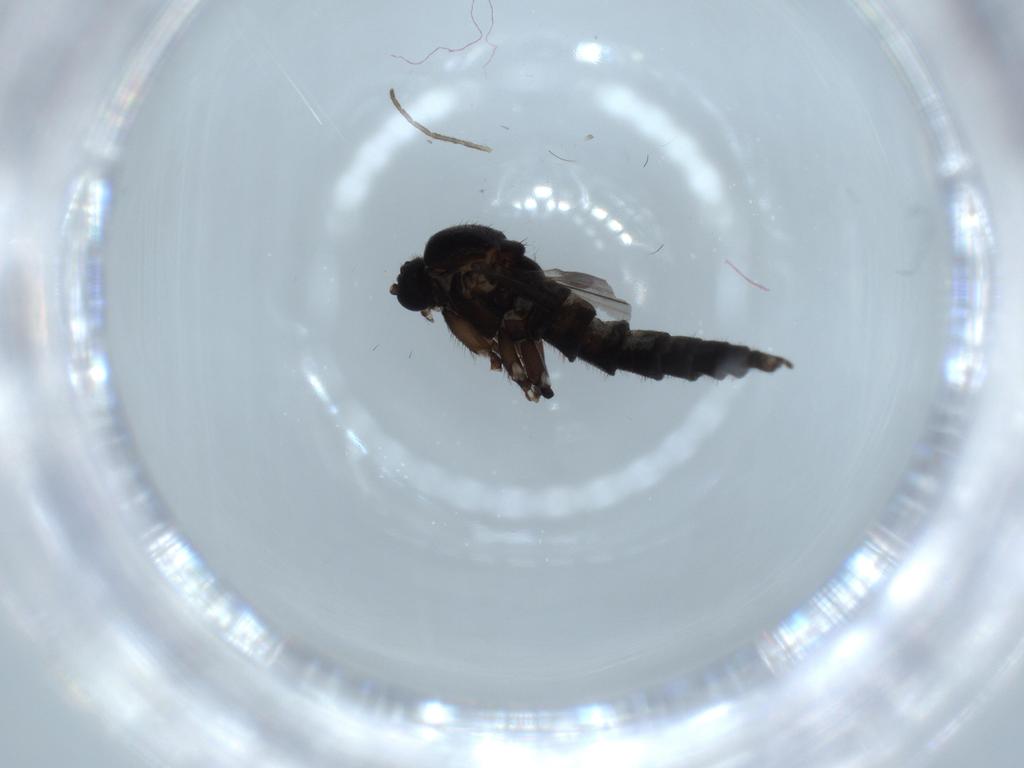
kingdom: Animalia
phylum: Arthropoda
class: Insecta
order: Diptera
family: Sciaridae
